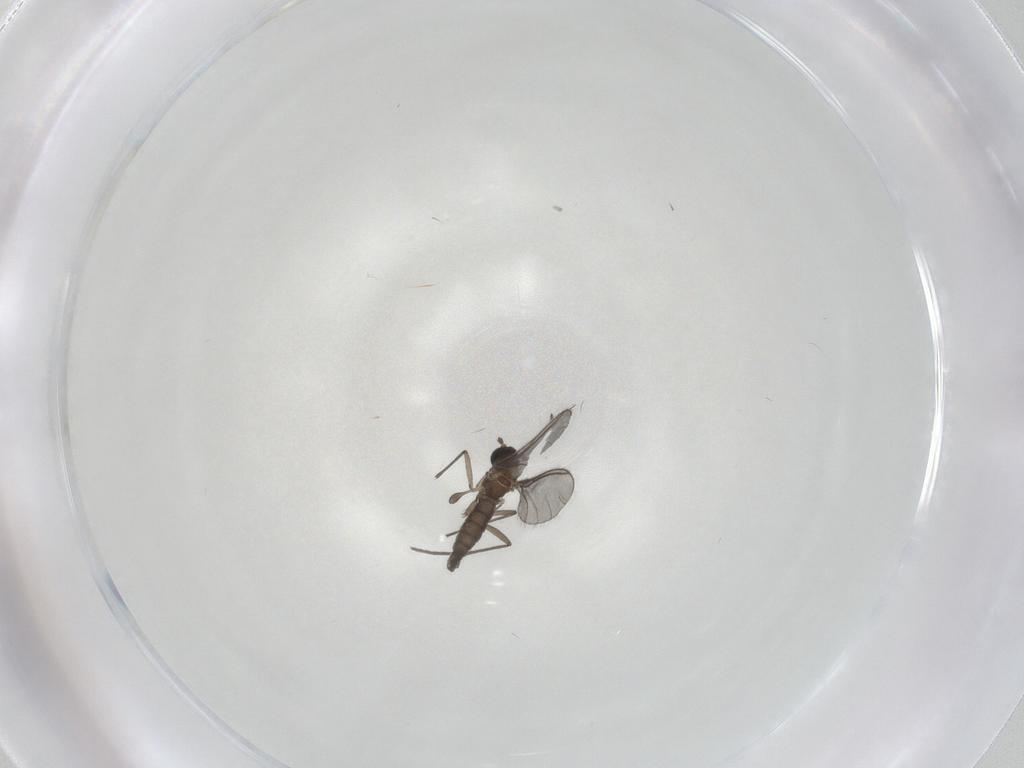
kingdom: Animalia
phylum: Arthropoda
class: Insecta
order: Diptera
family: Sciaridae
